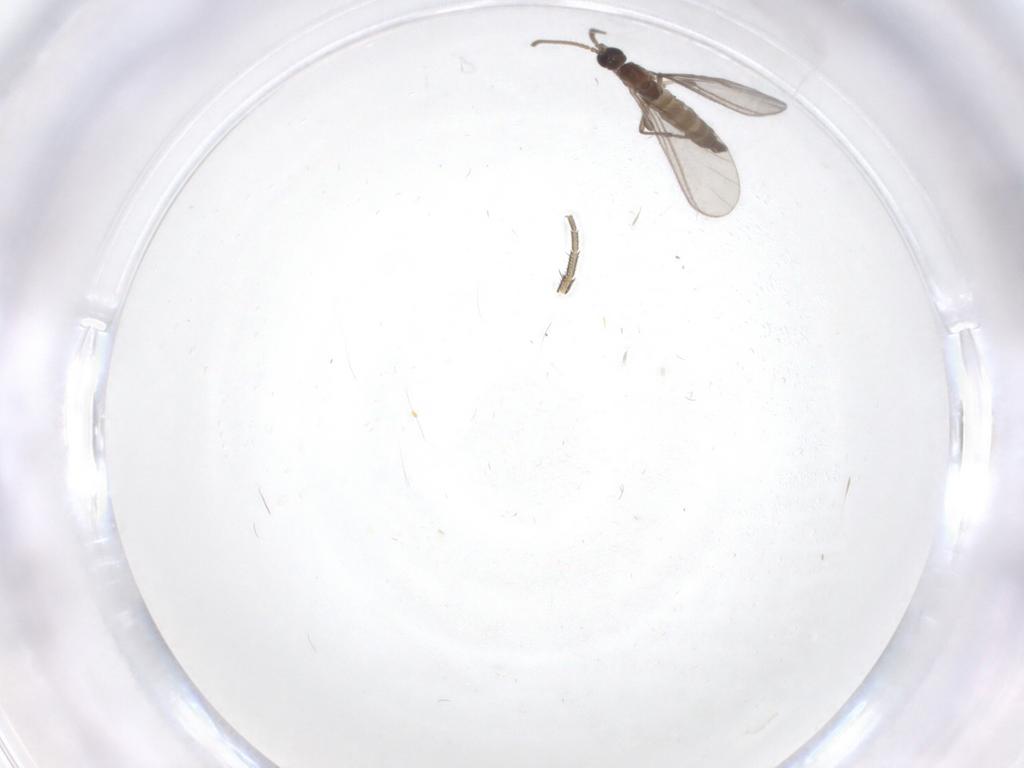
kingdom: Animalia
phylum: Arthropoda
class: Insecta
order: Diptera
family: Sciaridae
